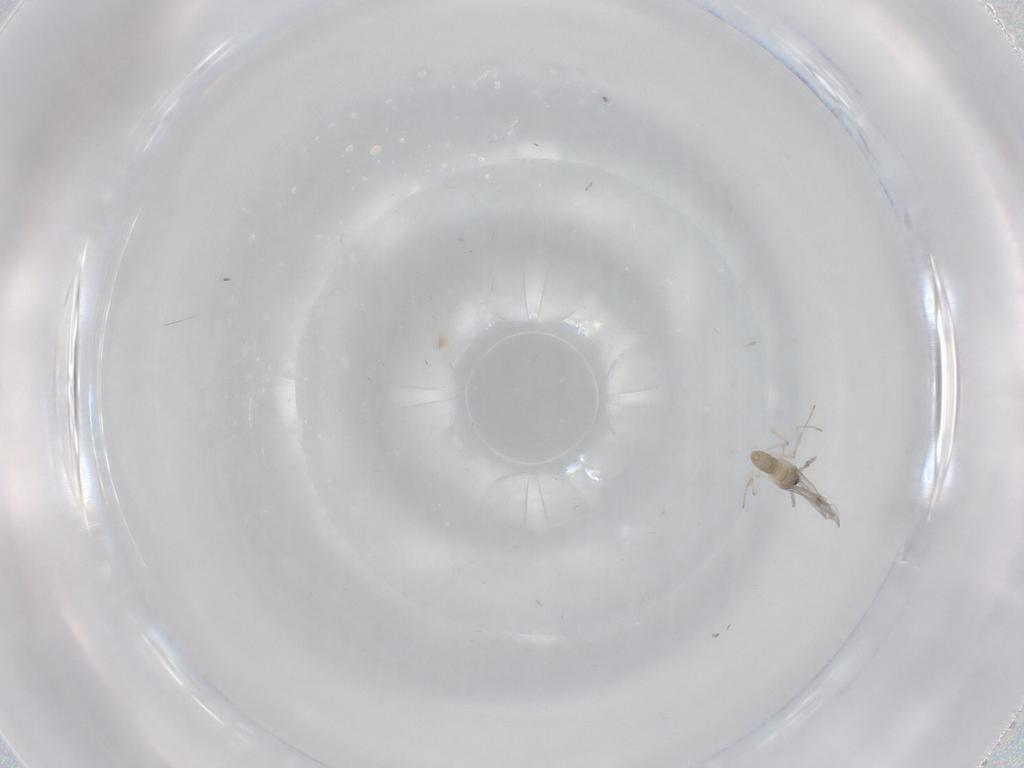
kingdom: Animalia
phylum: Arthropoda
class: Insecta
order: Diptera
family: Cecidomyiidae
